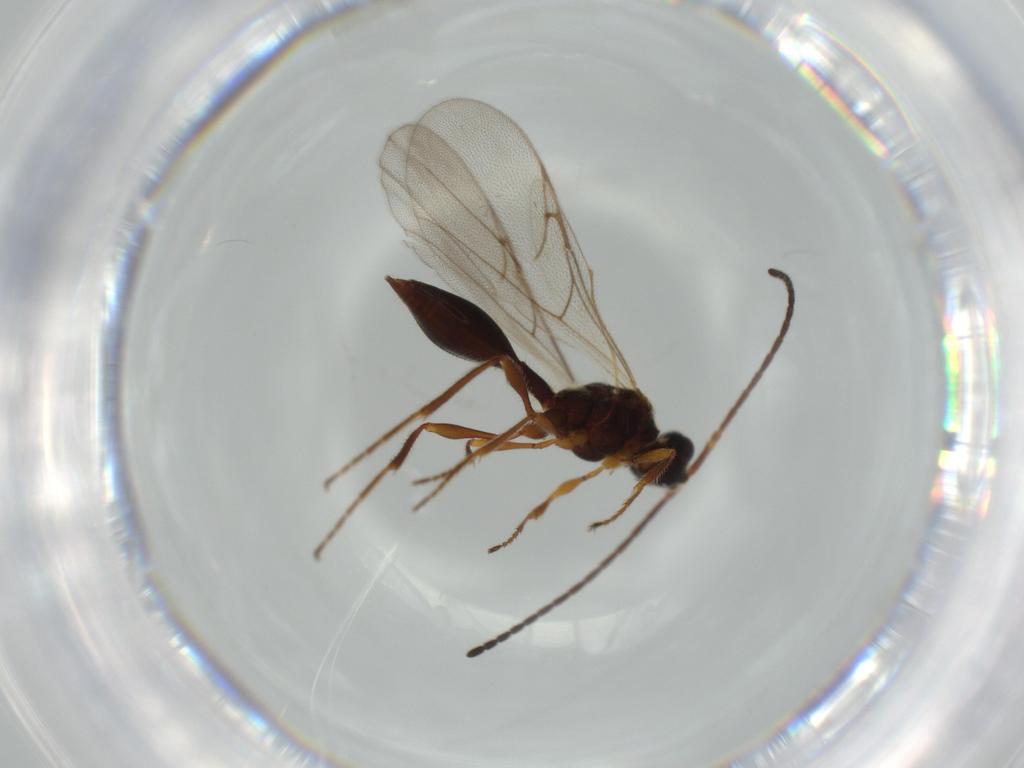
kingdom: Animalia
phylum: Arthropoda
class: Insecta
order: Hymenoptera
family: Diapriidae
